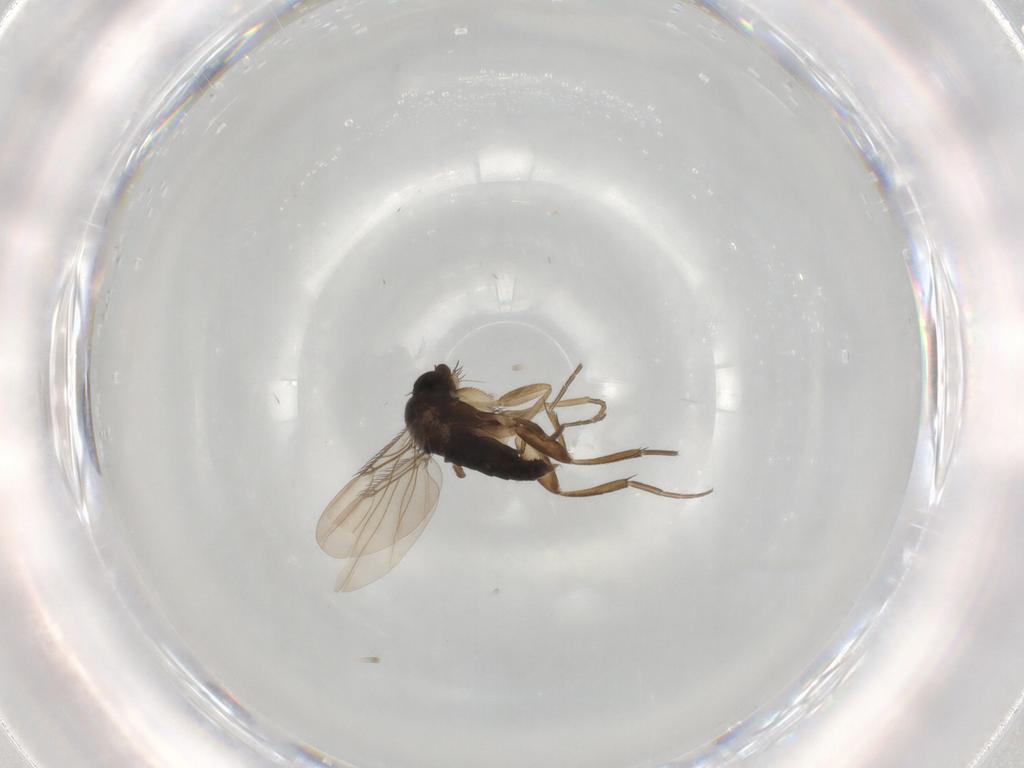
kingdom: Animalia
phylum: Arthropoda
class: Insecta
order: Diptera
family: Phoridae
